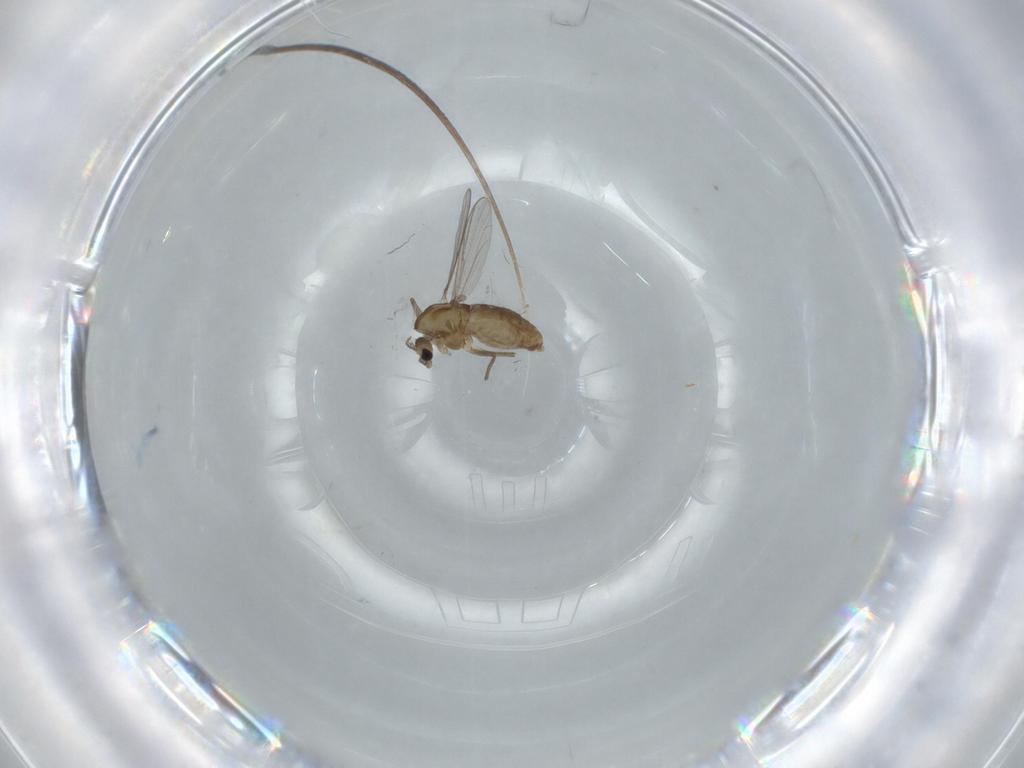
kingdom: Animalia
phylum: Arthropoda
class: Insecta
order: Diptera
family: Chironomidae
